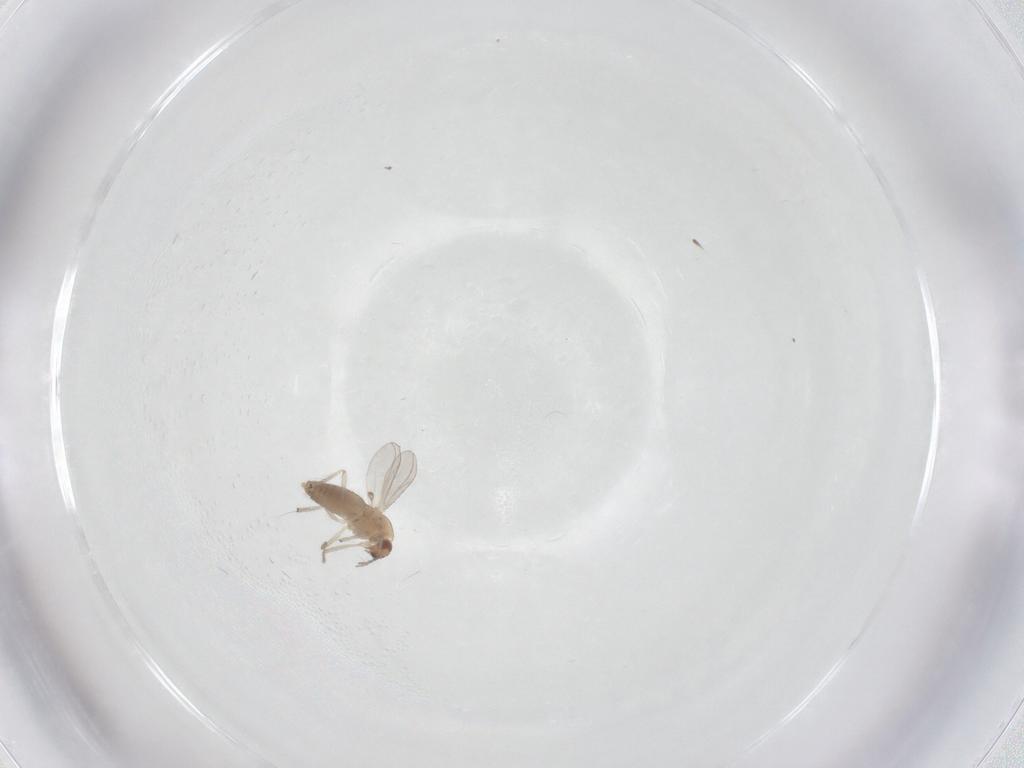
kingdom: Animalia
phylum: Arthropoda
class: Insecta
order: Diptera
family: Chironomidae
